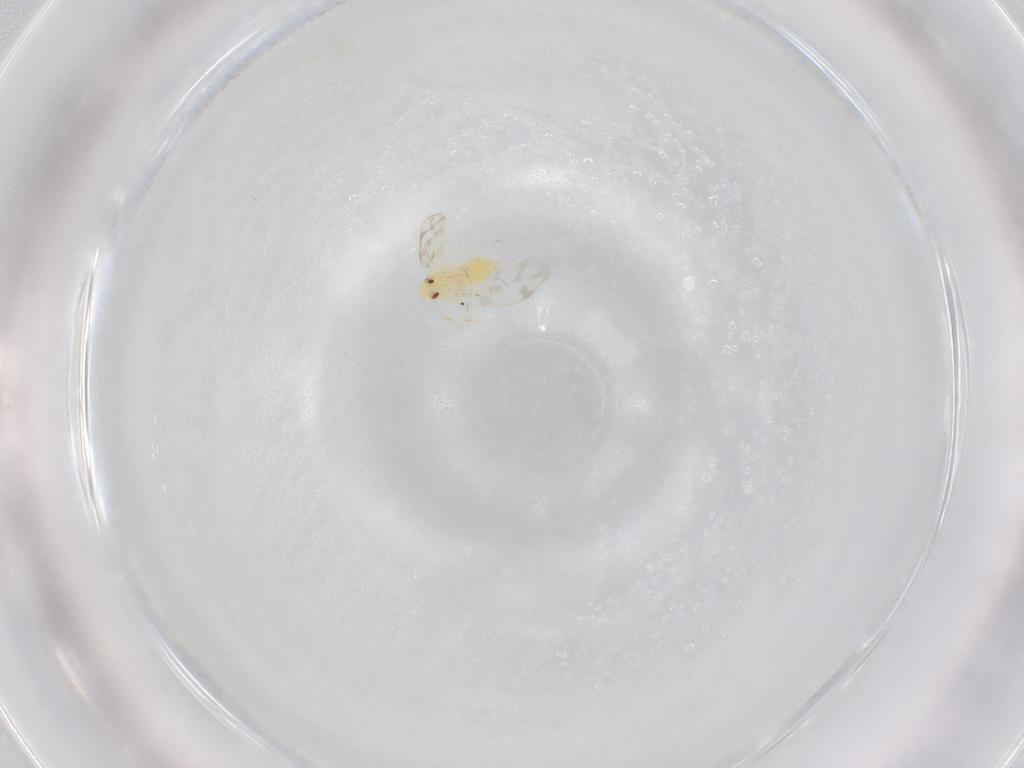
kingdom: Animalia
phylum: Arthropoda
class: Insecta
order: Hemiptera
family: Aleyrodidae
